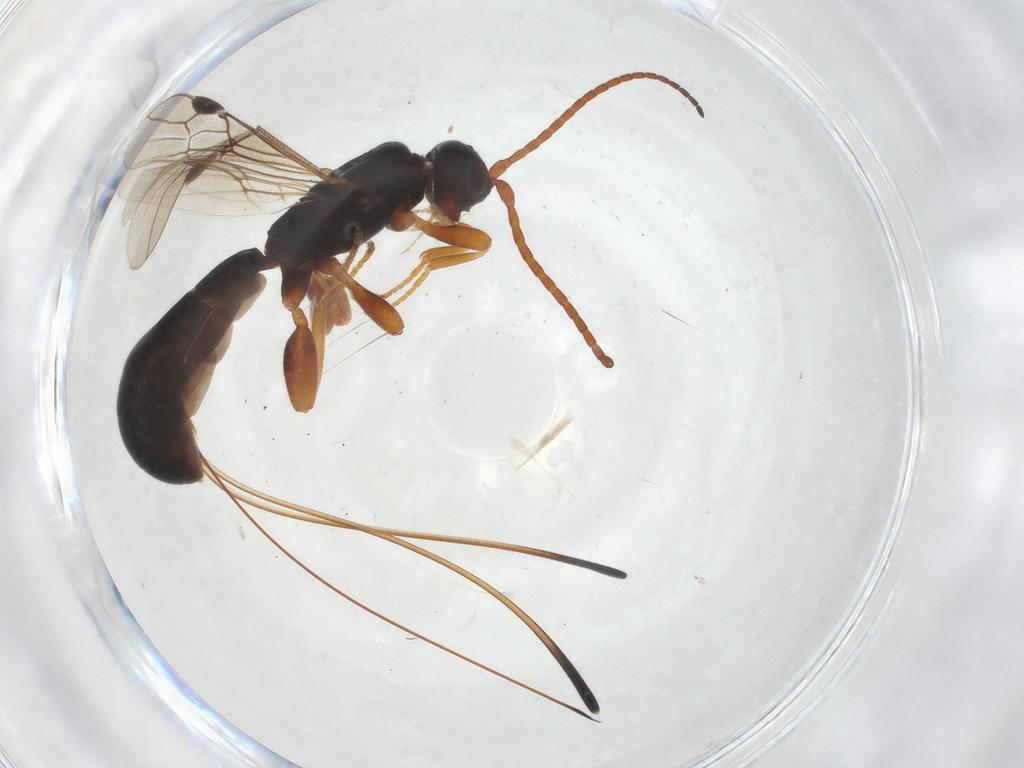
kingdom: Animalia
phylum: Arthropoda
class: Insecta
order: Hymenoptera
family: Braconidae
